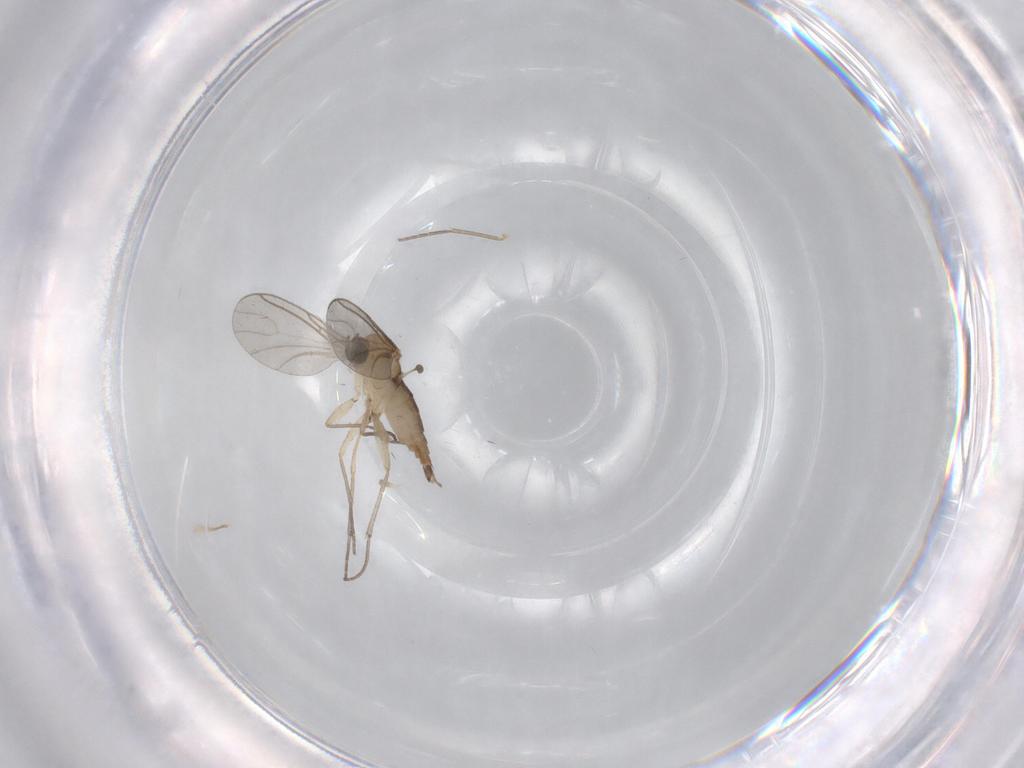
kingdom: Animalia
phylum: Arthropoda
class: Insecta
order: Diptera
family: Sciaridae
